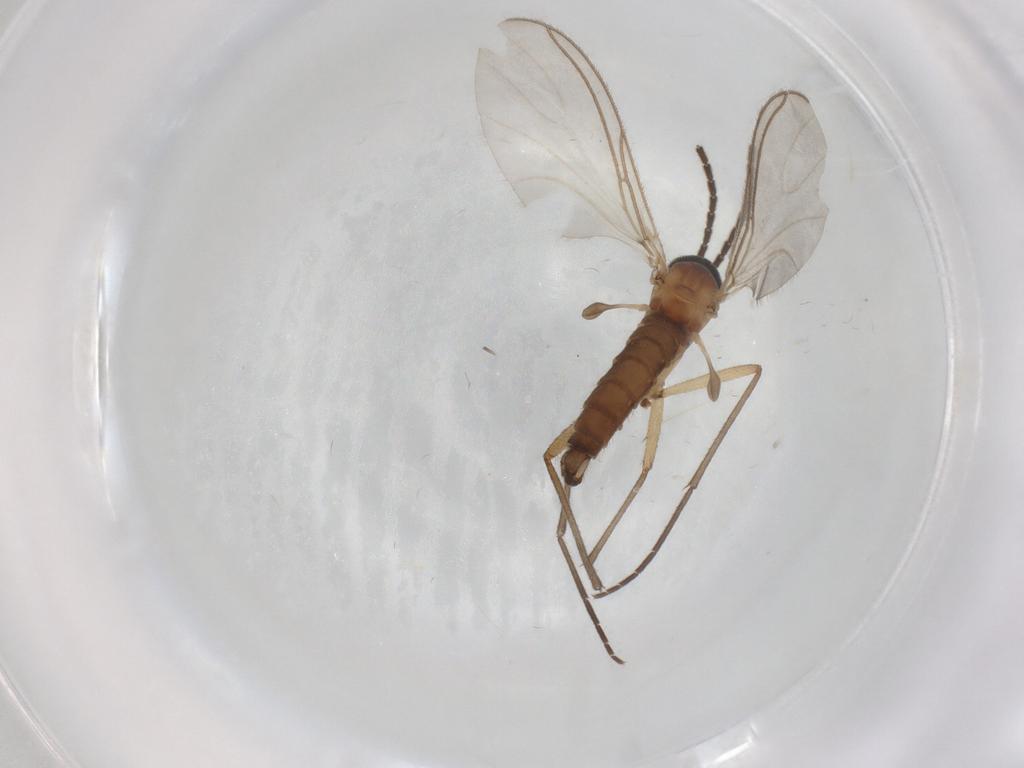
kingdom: Animalia
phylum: Arthropoda
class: Insecta
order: Diptera
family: Sciaridae
